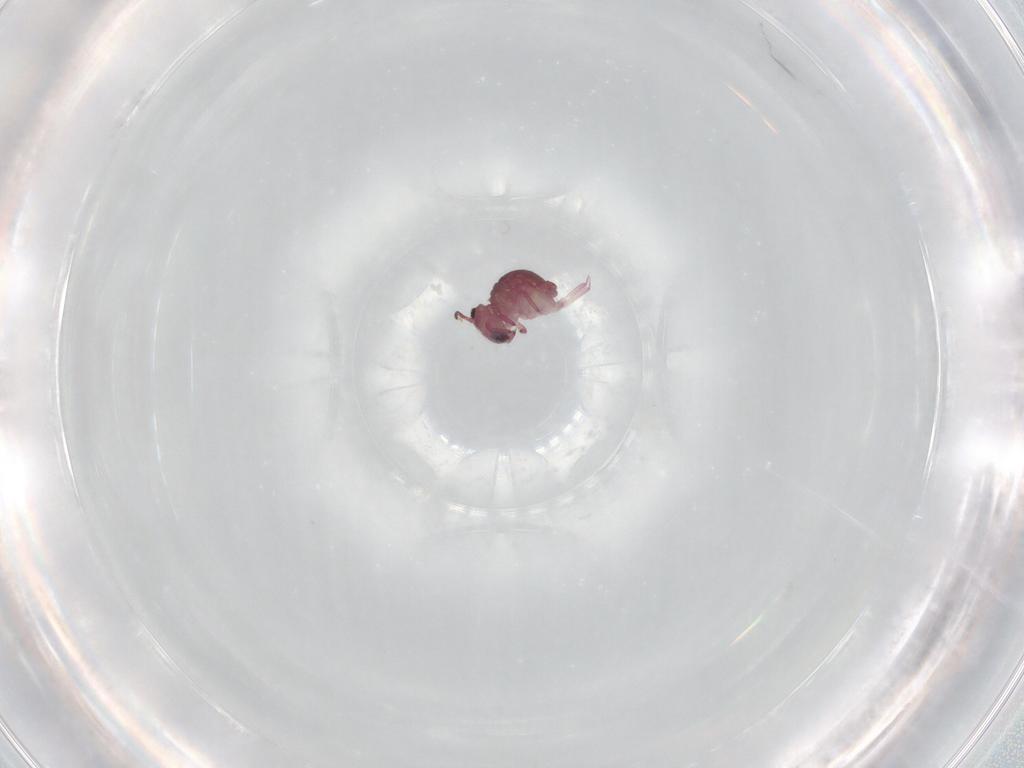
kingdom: Animalia
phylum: Arthropoda
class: Collembola
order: Symphypleona
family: Sminthurididae
